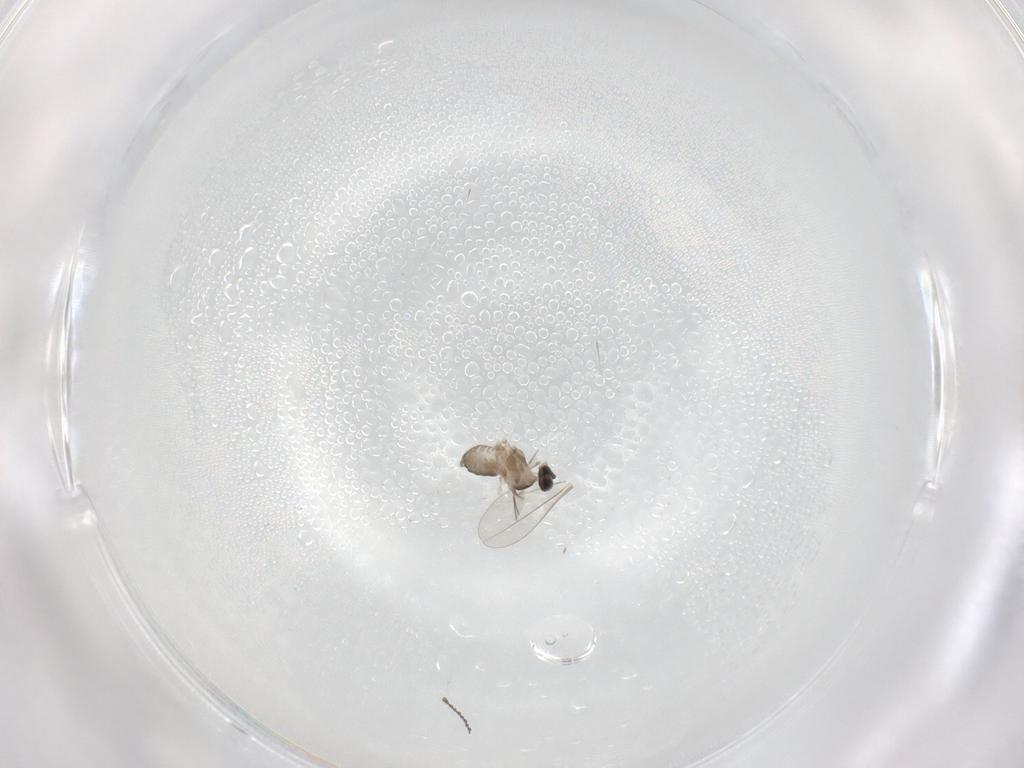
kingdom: Animalia
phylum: Arthropoda
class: Insecta
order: Diptera
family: Cecidomyiidae
